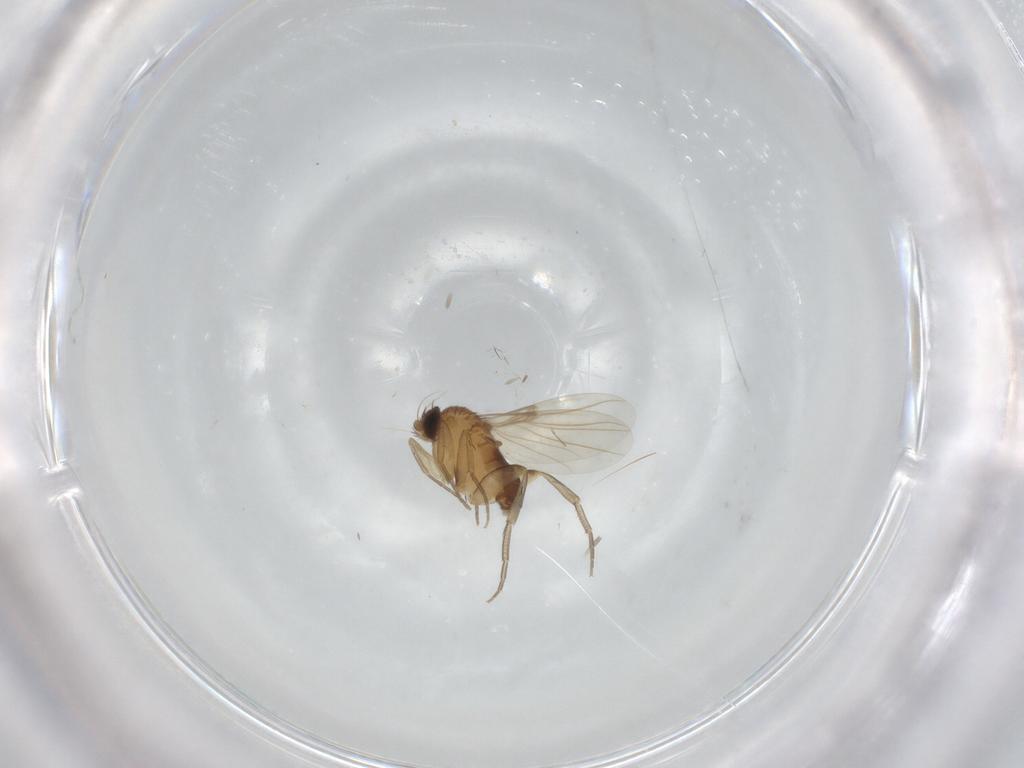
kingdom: Animalia
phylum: Arthropoda
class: Insecta
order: Diptera
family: Phoridae
